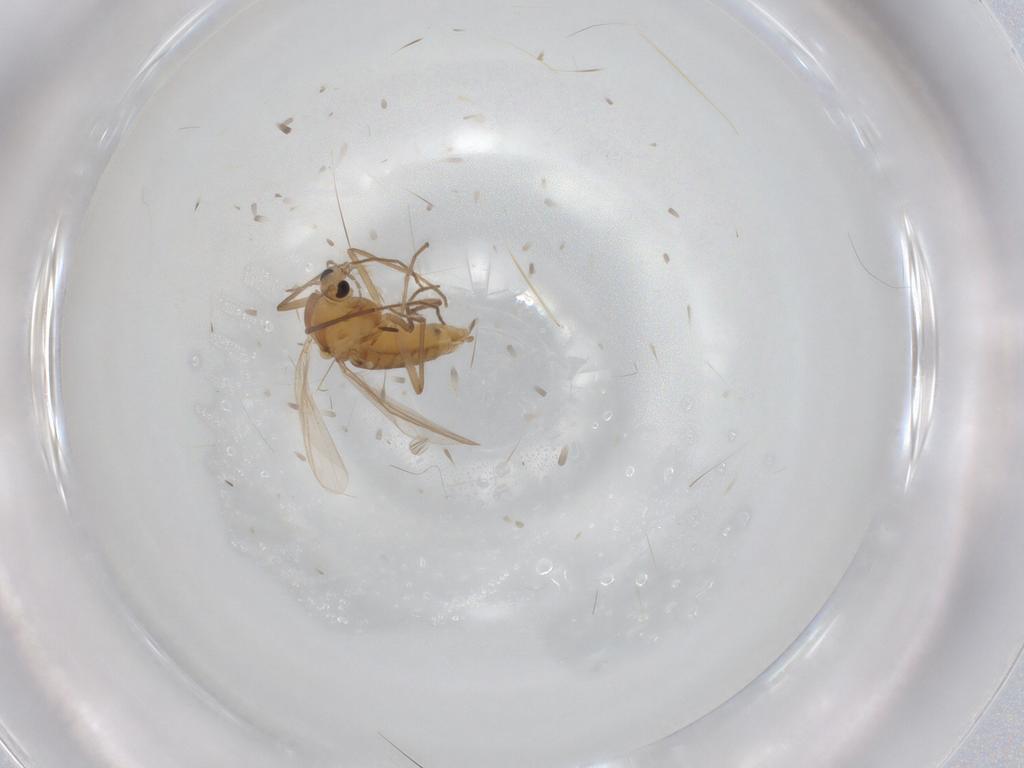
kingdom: Animalia
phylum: Arthropoda
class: Insecta
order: Diptera
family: Chironomidae
